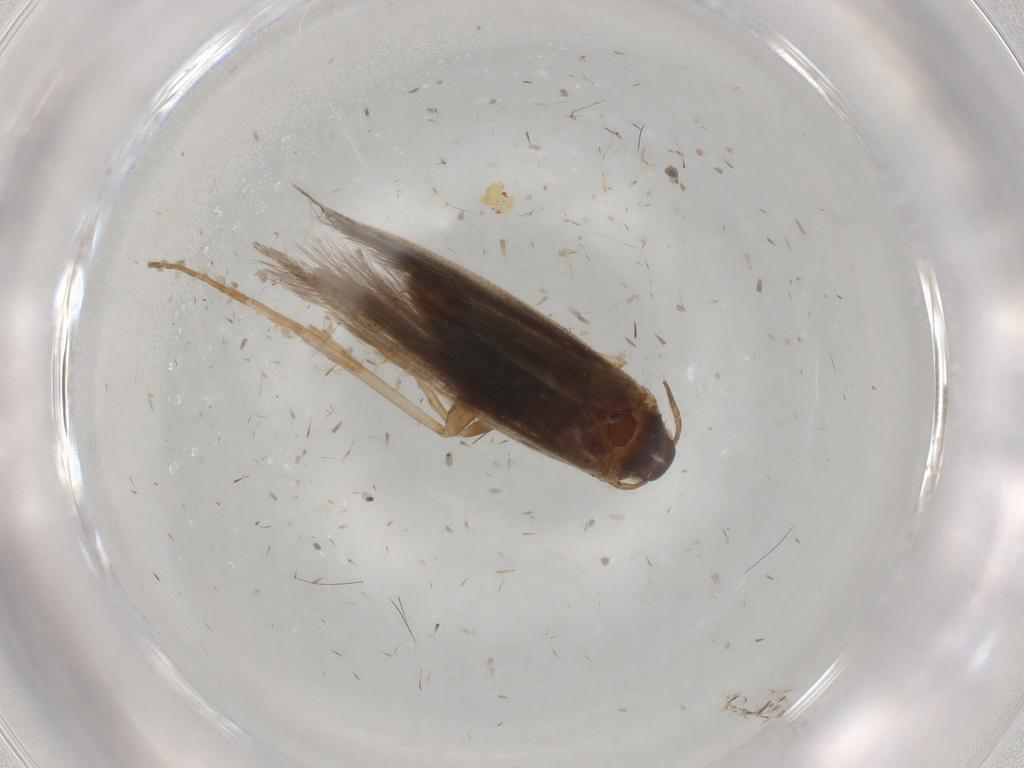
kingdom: Animalia
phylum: Arthropoda
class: Insecta
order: Lepidoptera
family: Gelechiidae
